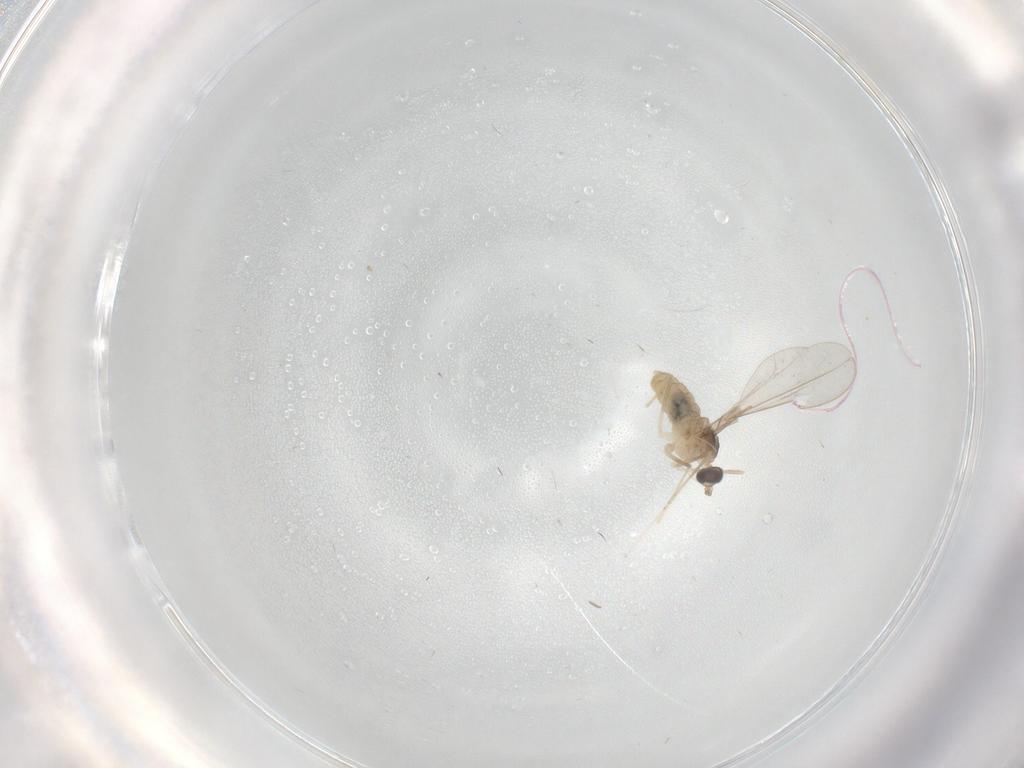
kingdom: Animalia
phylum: Arthropoda
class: Insecta
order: Diptera
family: Cecidomyiidae
